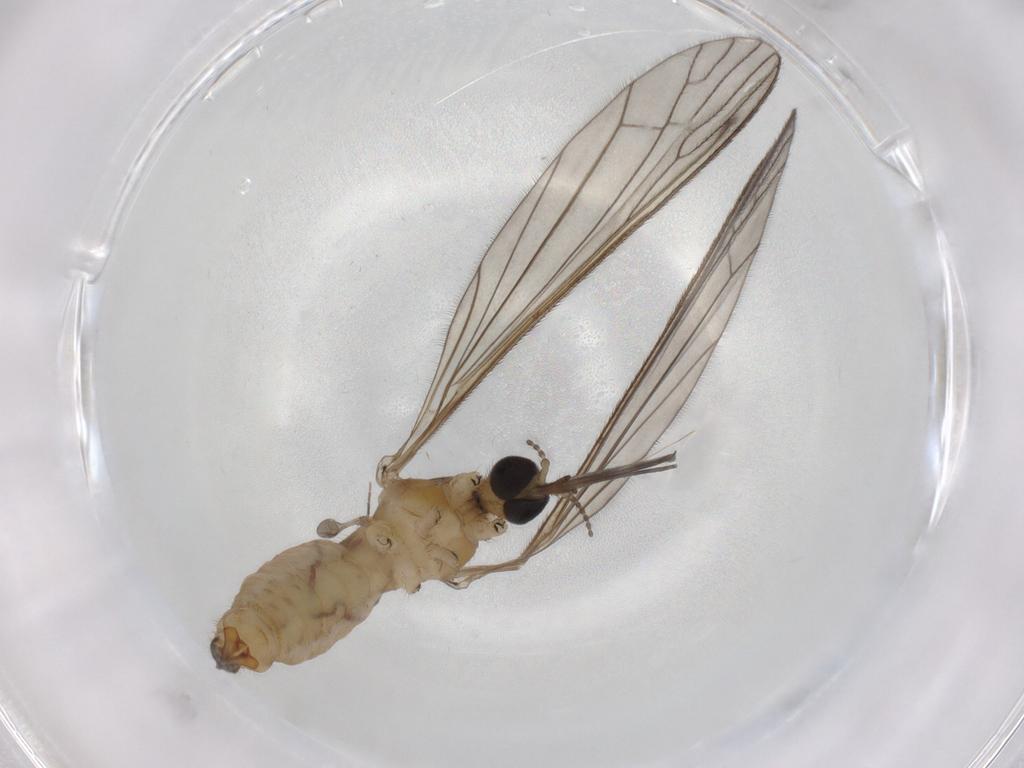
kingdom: Animalia
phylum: Arthropoda
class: Insecta
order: Diptera
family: Limoniidae
